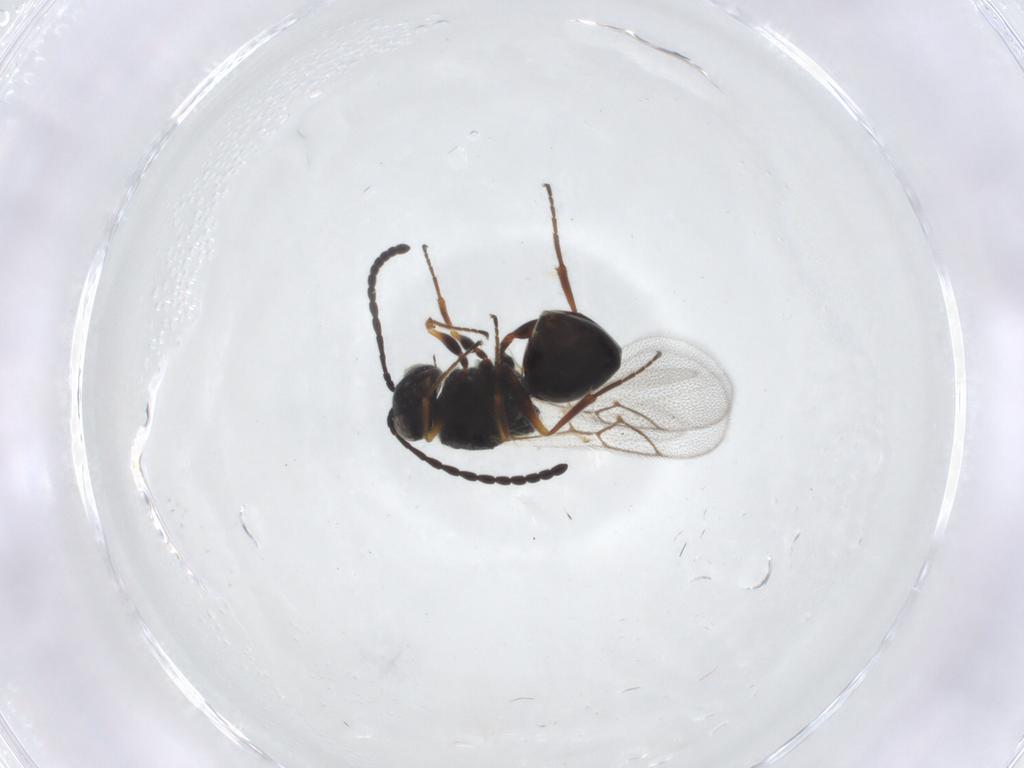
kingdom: Animalia
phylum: Arthropoda
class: Insecta
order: Hymenoptera
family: Figitidae
